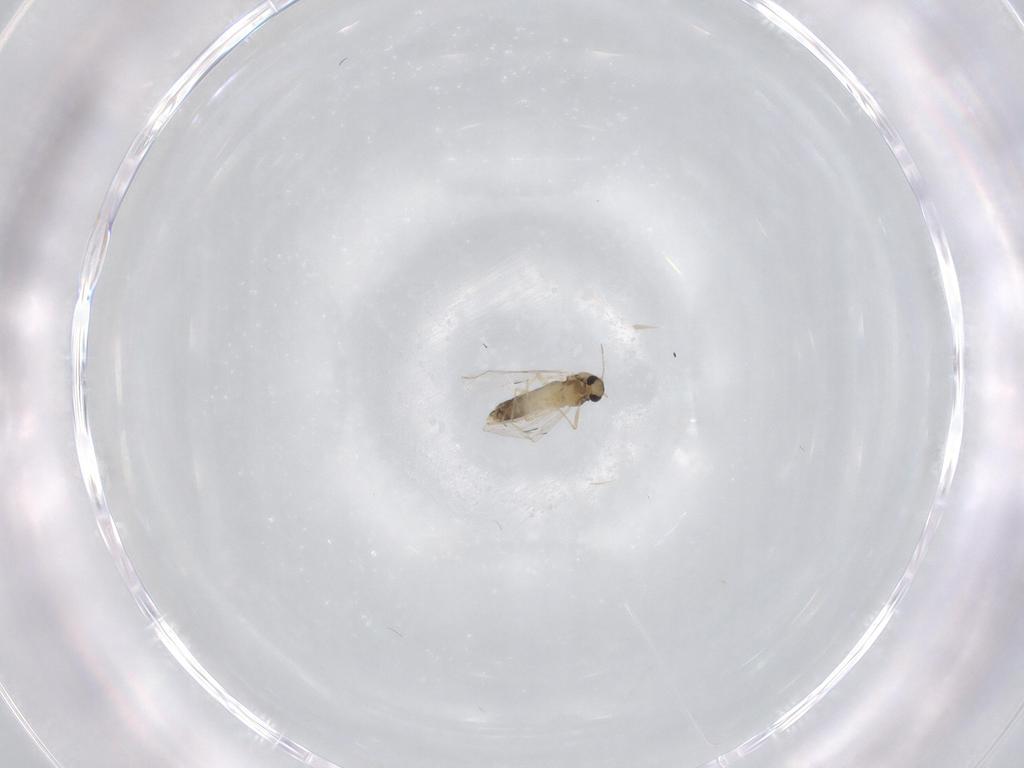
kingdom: Animalia
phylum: Arthropoda
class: Insecta
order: Diptera
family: Chironomidae
